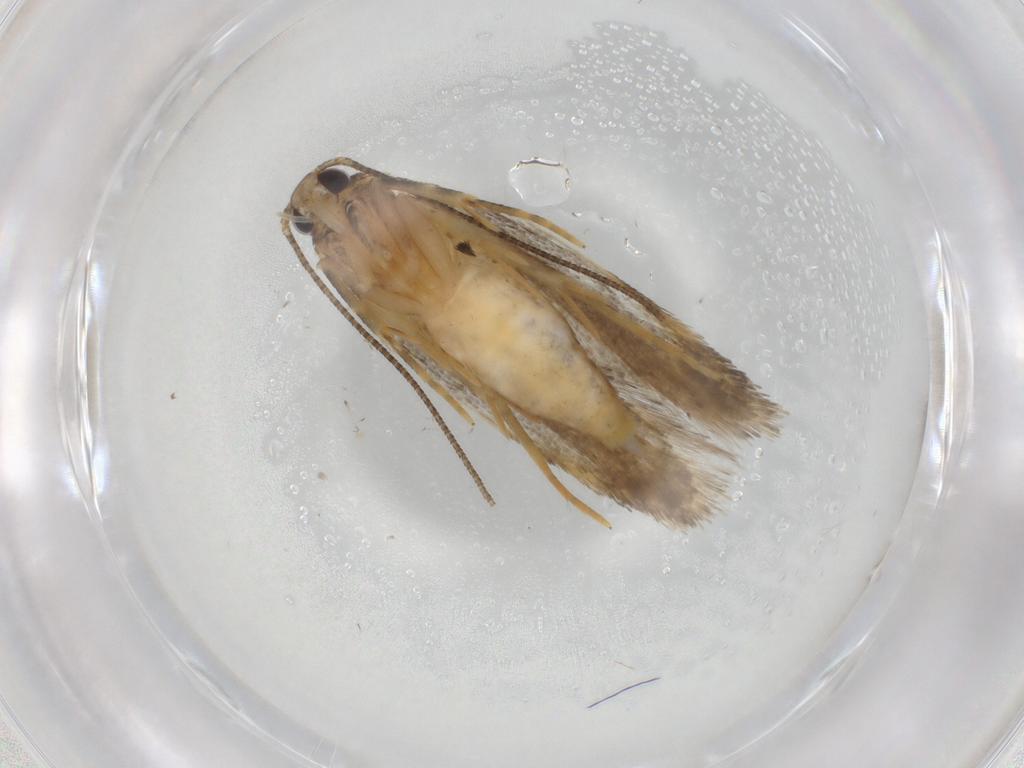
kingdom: Animalia
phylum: Arthropoda
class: Insecta
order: Lepidoptera
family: Autostichidae
